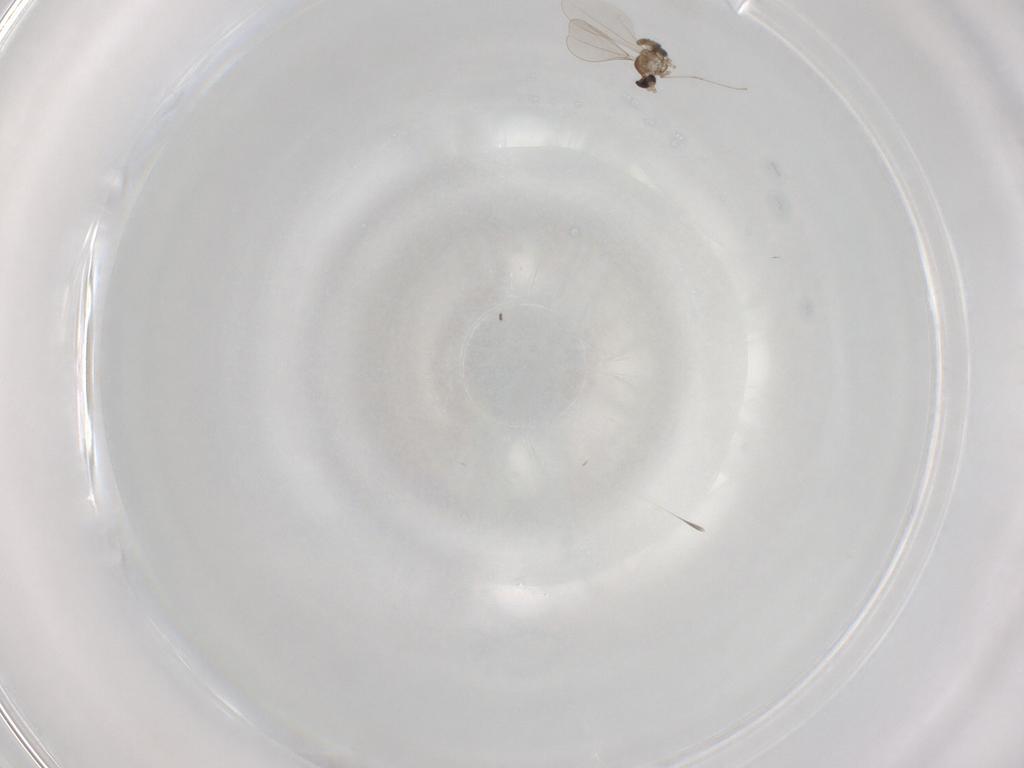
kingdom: Animalia
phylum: Arthropoda
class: Insecta
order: Diptera
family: Cecidomyiidae
